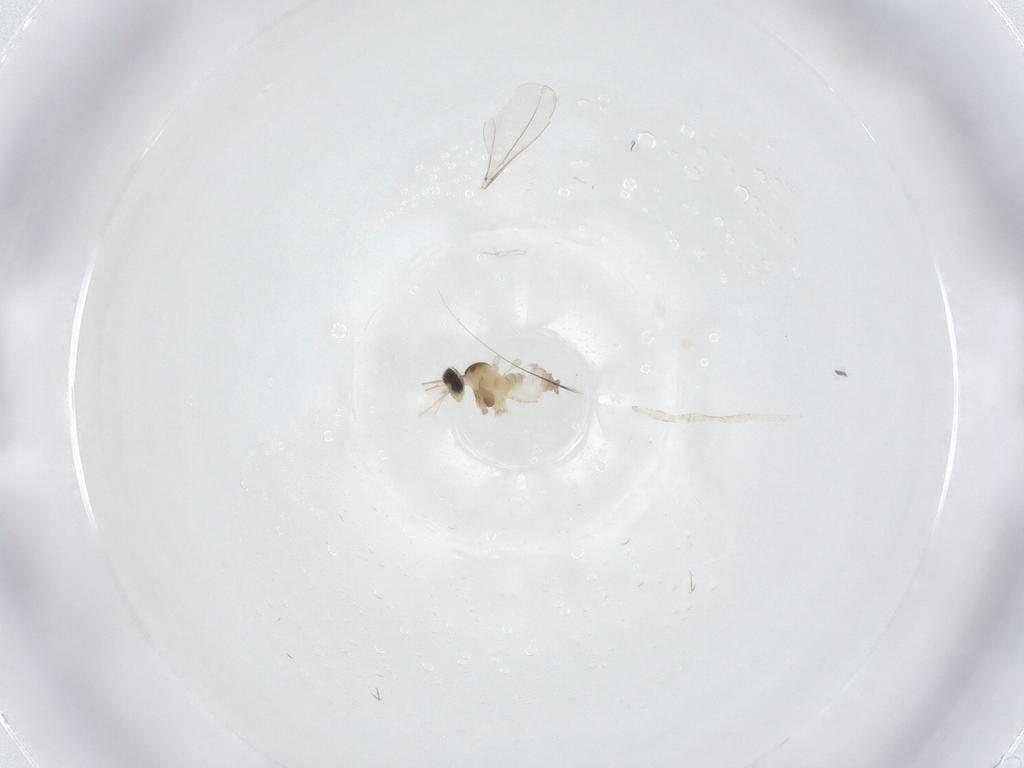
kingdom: Animalia
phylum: Arthropoda
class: Insecta
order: Diptera
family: Cecidomyiidae
